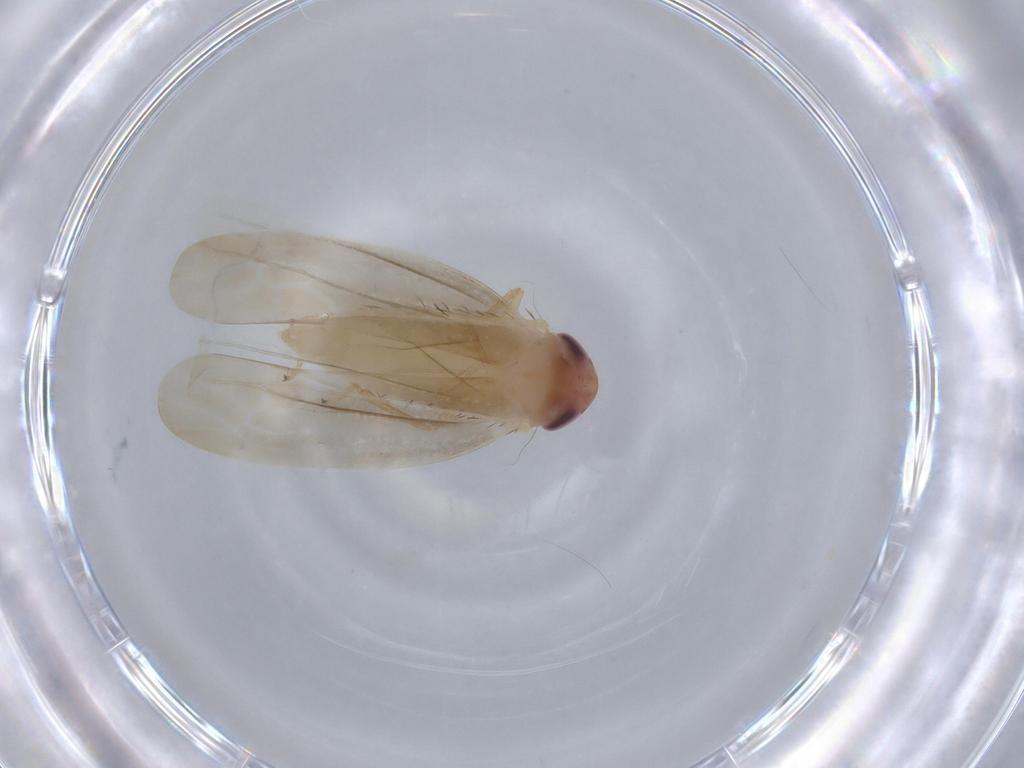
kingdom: Animalia
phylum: Arthropoda
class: Insecta
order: Hemiptera
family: Cicadellidae
